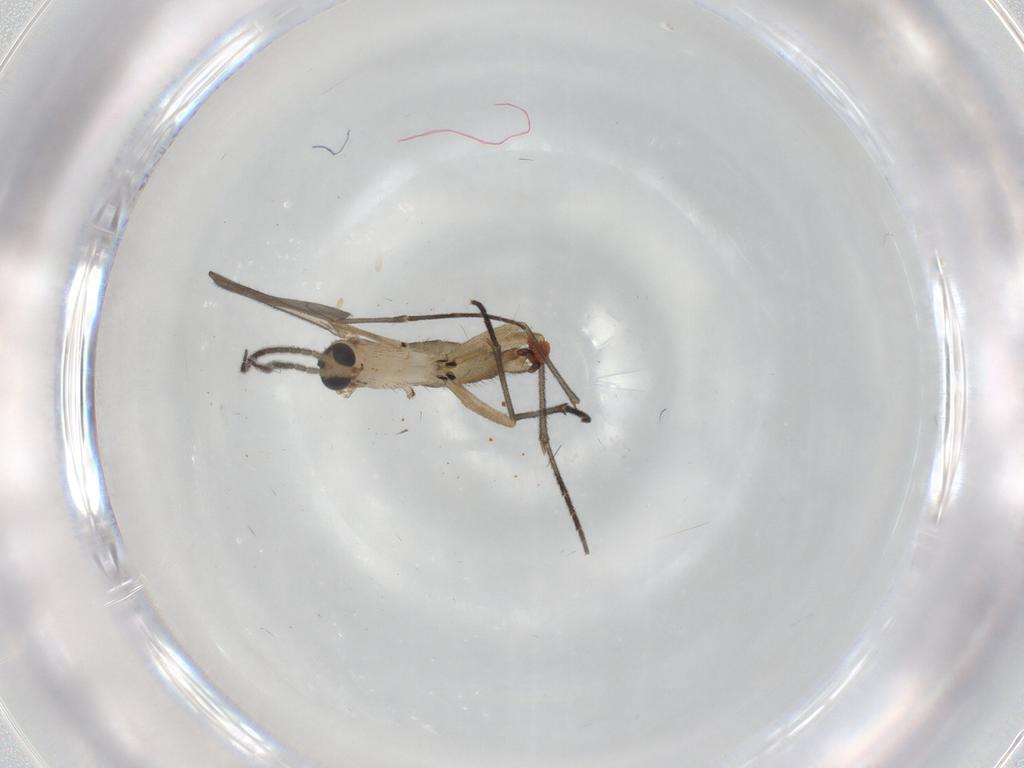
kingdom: Animalia
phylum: Arthropoda
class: Insecta
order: Diptera
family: Sciaridae
